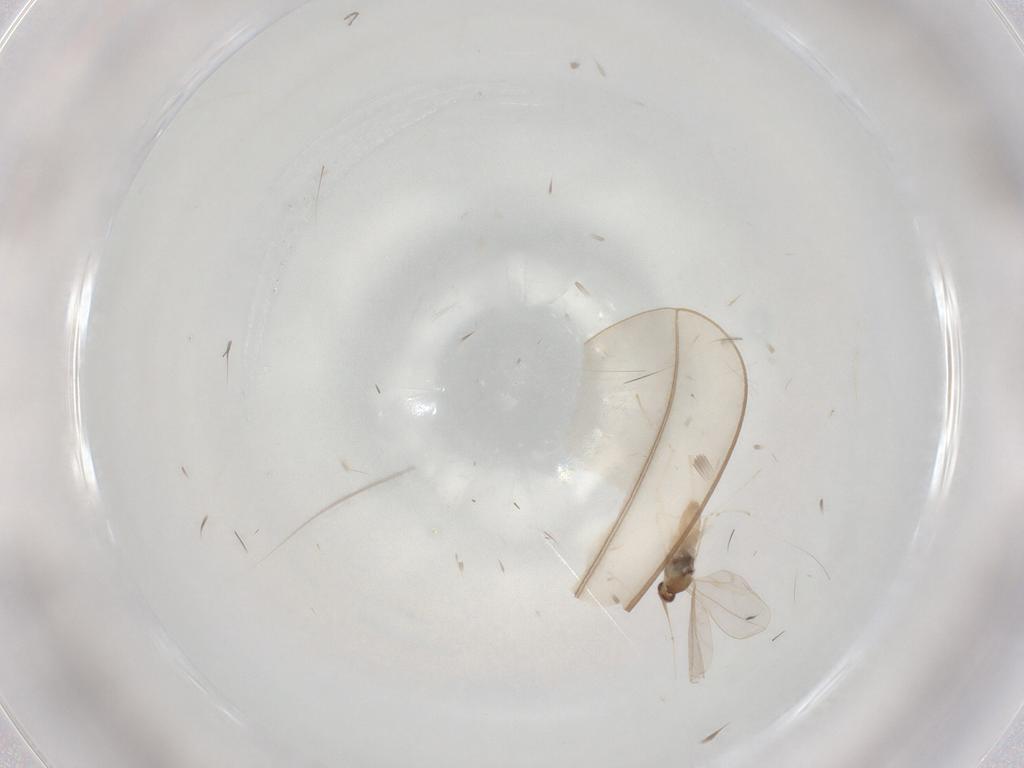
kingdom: Animalia
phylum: Arthropoda
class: Insecta
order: Diptera
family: Cecidomyiidae
